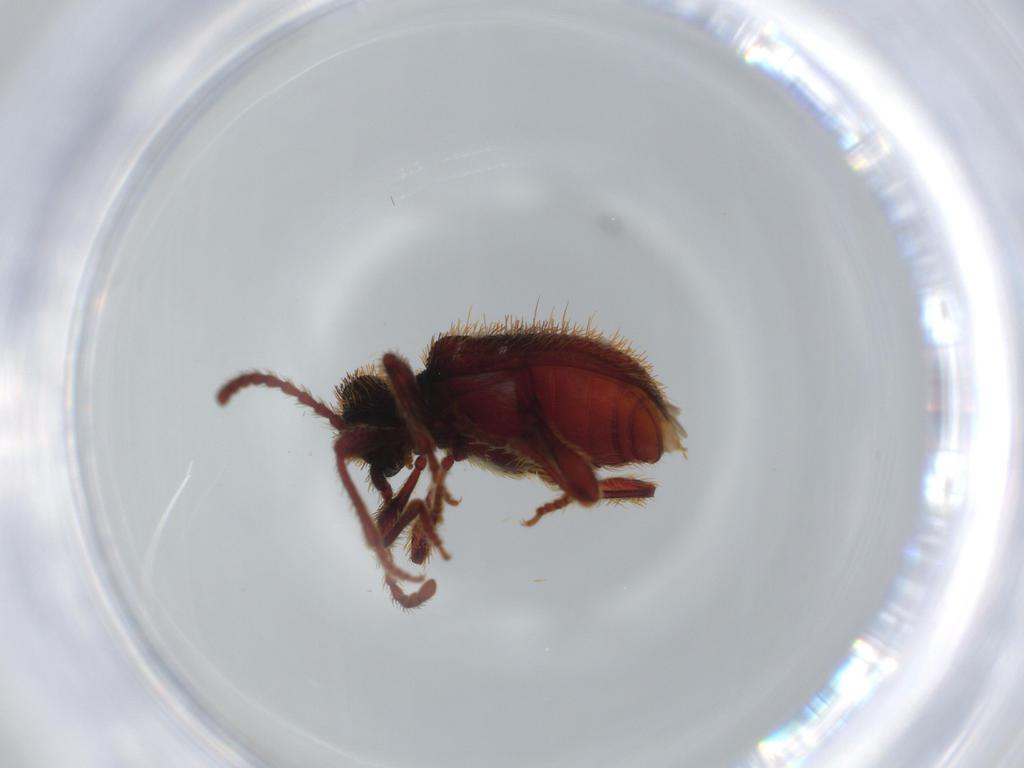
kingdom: Animalia
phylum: Arthropoda
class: Insecta
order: Coleoptera
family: Ptinidae
